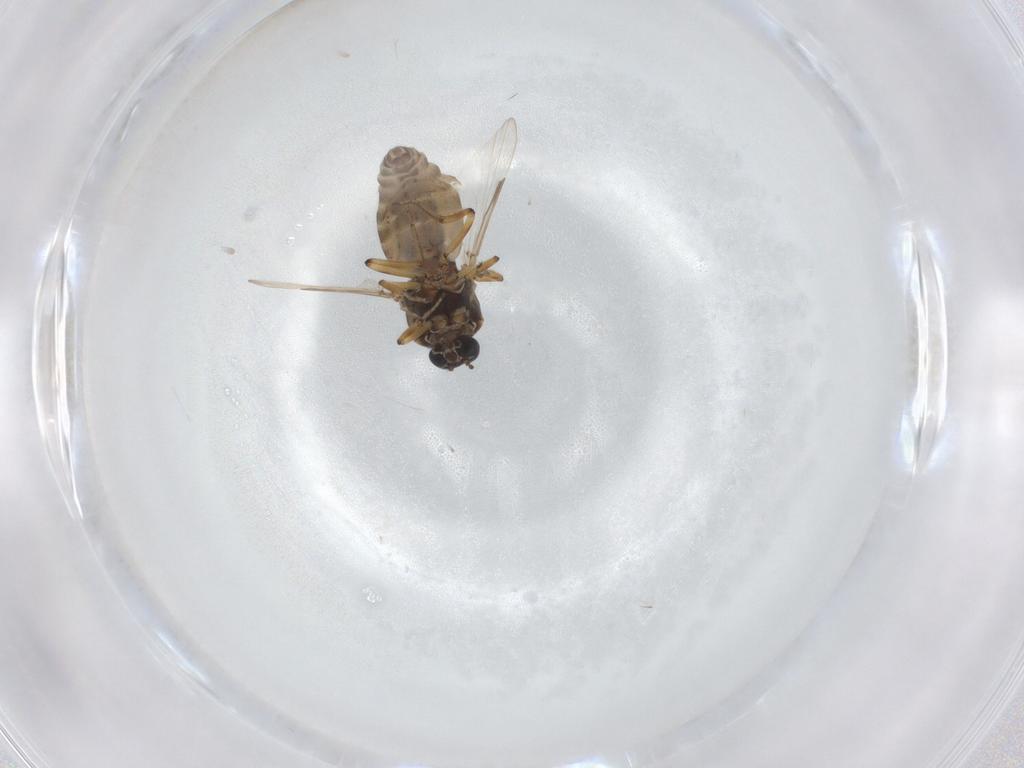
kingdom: Animalia
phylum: Arthropoda
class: Insecta
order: Diptera
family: Ceratopogonidae
